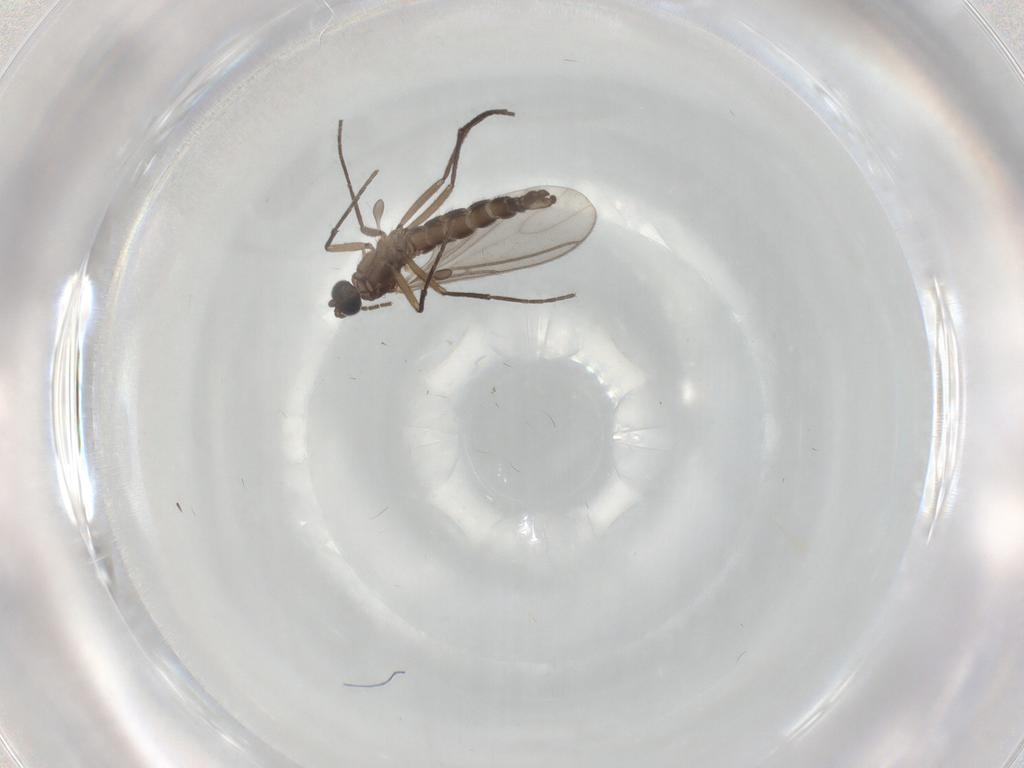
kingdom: Animalia
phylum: Arthropoda
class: Insecta
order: Diptera
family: Sciaridae
